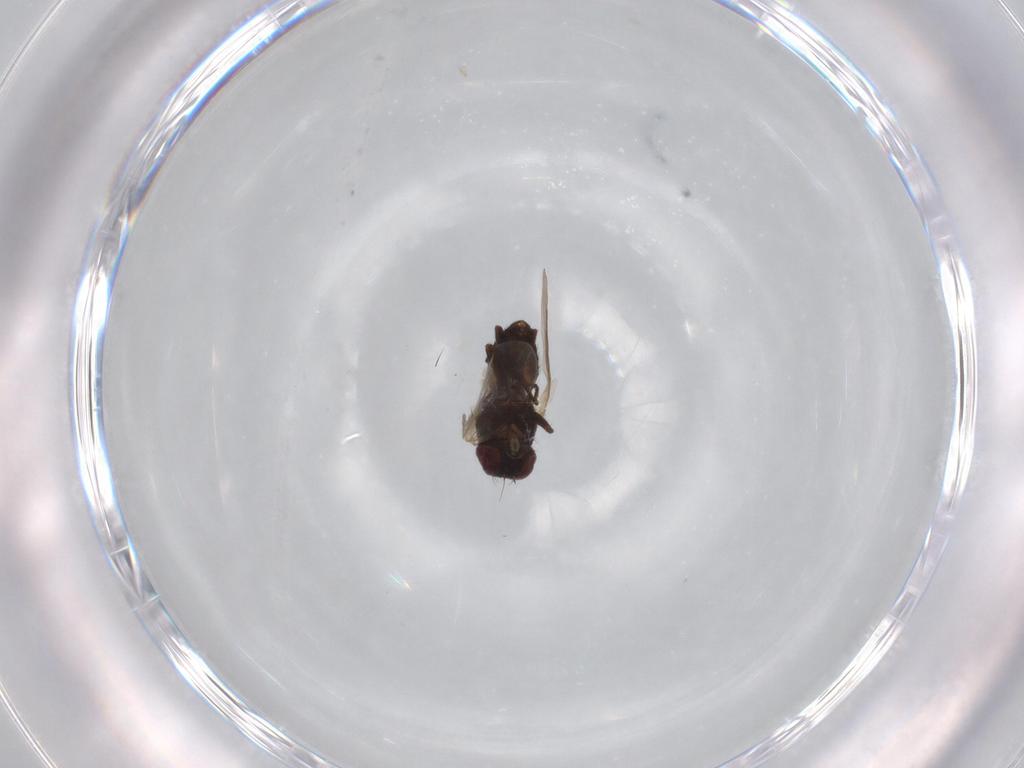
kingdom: Animalia
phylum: Arthropoda
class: Insecta
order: Diptera
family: Agromyzidae
